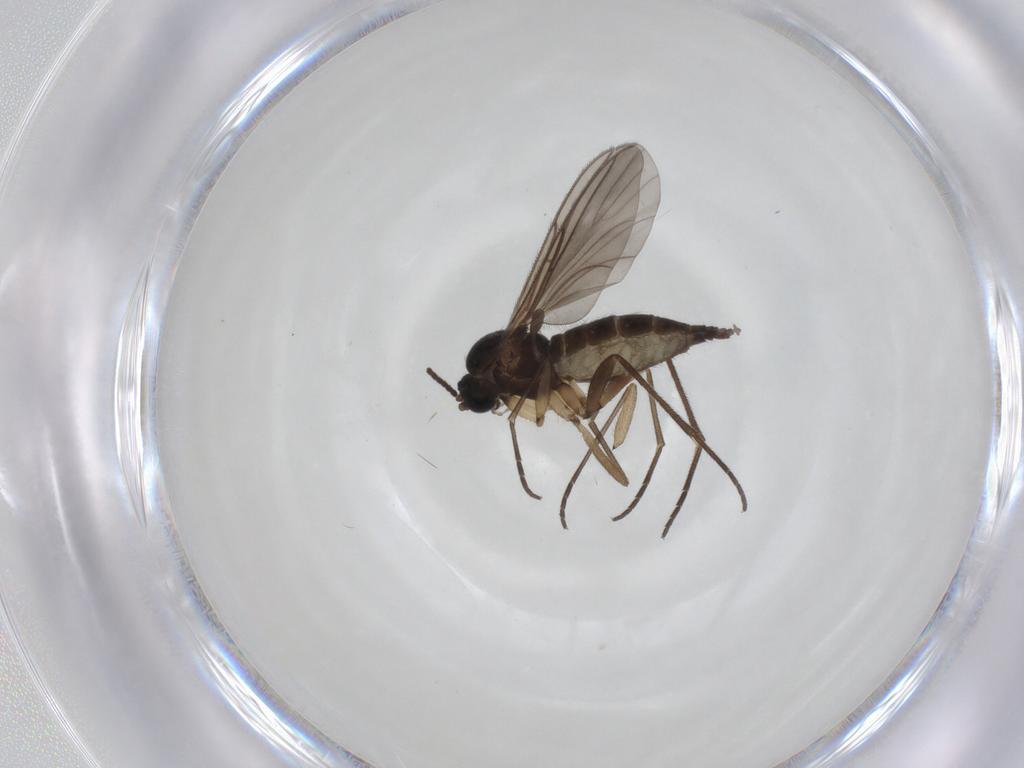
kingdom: Animalia
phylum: Arthropoda
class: Insecta
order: Diptera
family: Sciaridae
